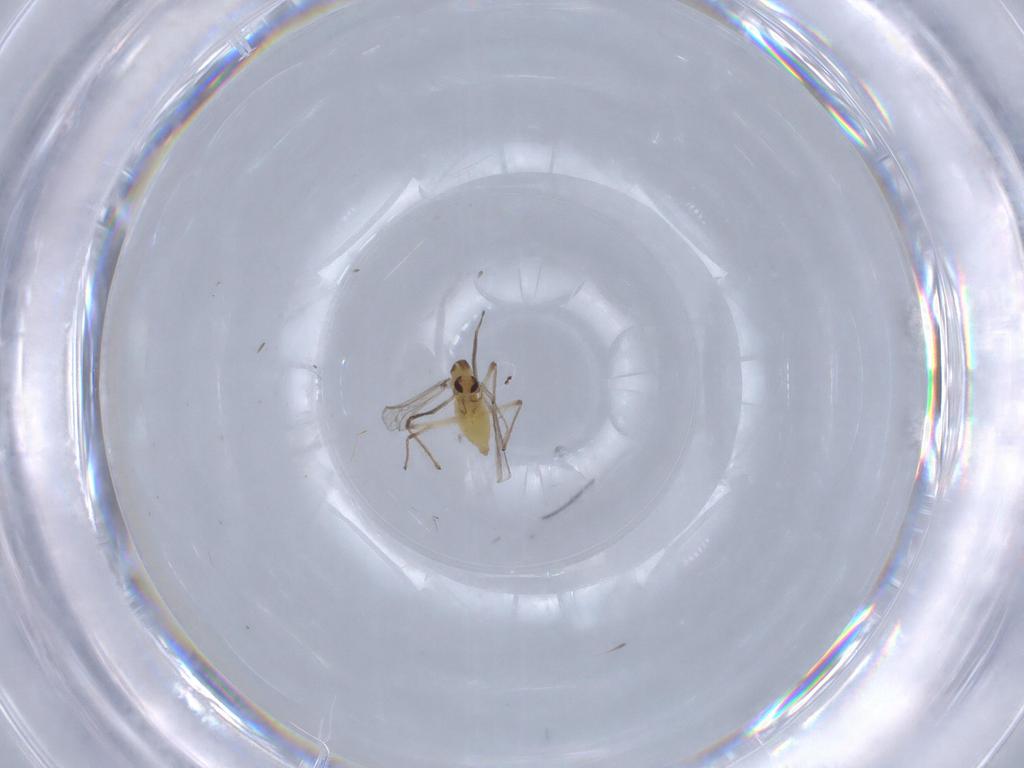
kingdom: Animalia
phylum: Arthropoda
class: Insecta
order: Diptera
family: Chironomidae
